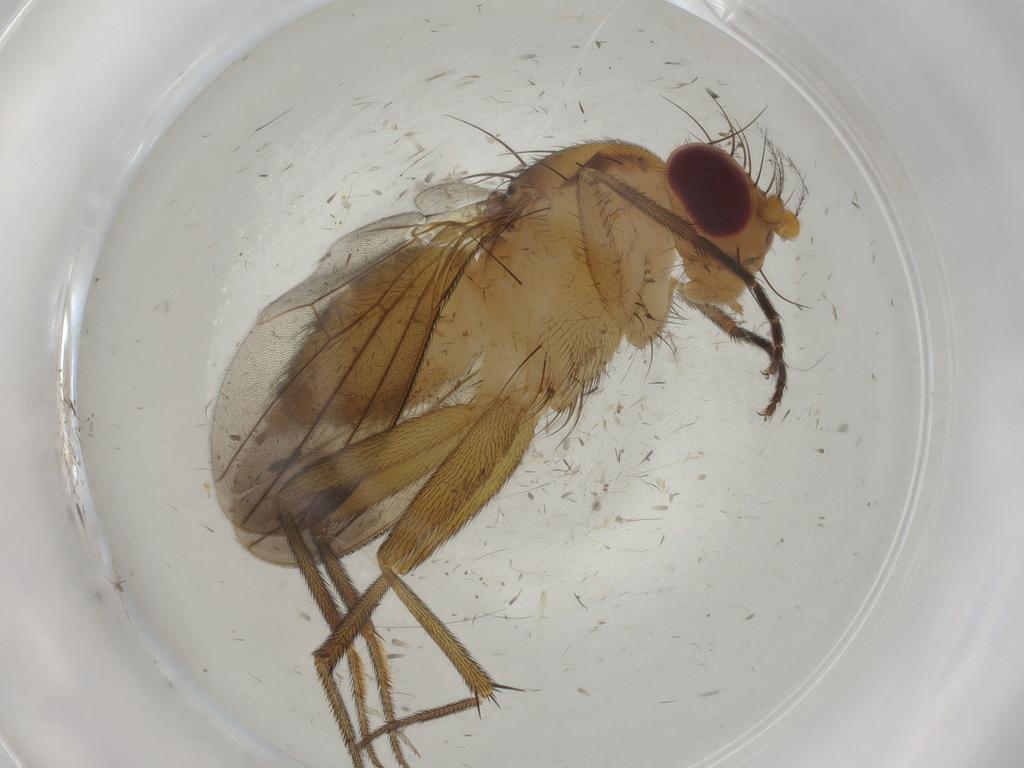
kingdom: Animalia
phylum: Arthropoda
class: Insecta
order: Diptera
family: Clusiidae
